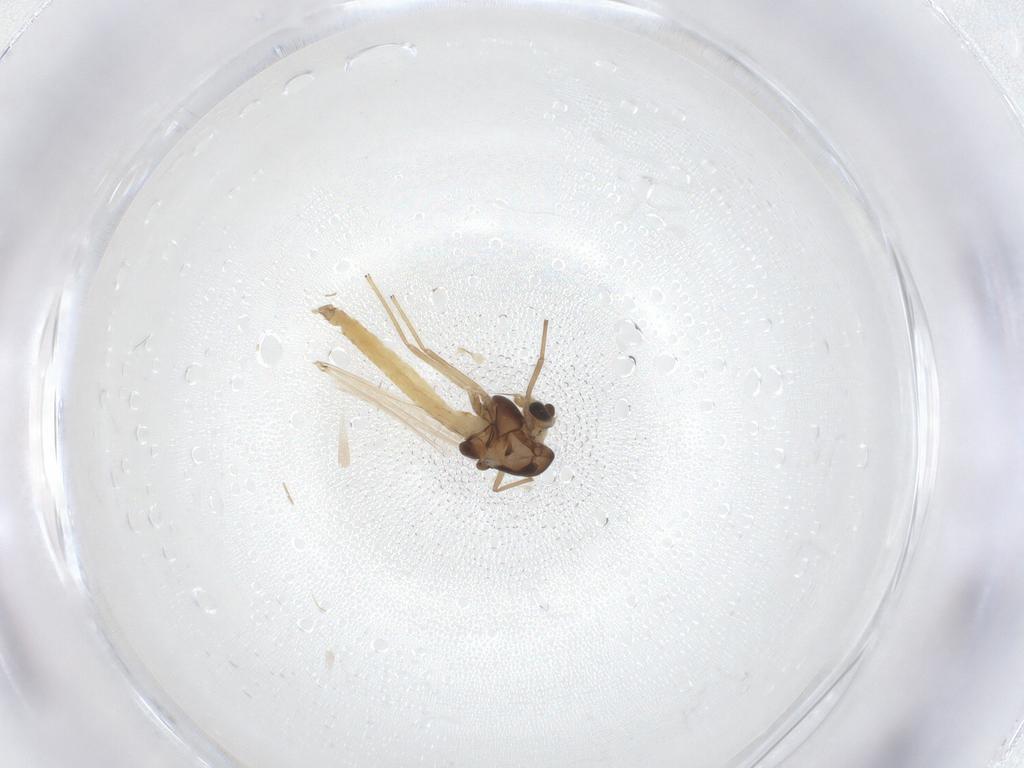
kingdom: Animalia
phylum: Arthropoda
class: Insecta
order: Diptera
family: Chironomidae
